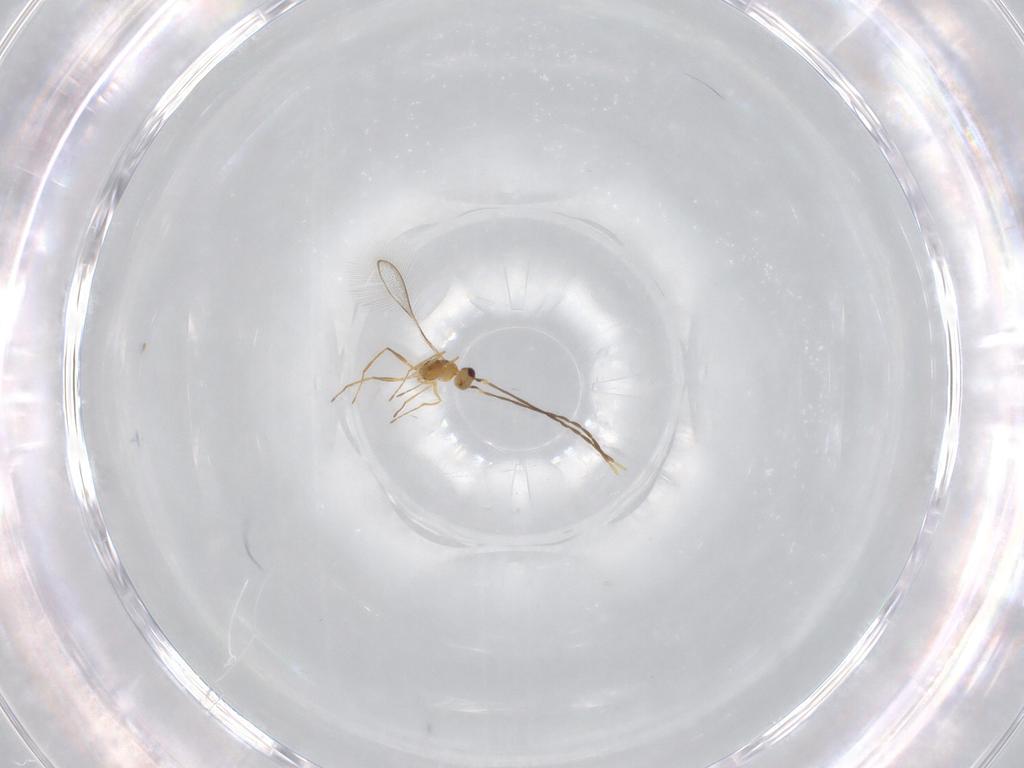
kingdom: Animalia
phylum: Arthropoda
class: Insecta
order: Hymenoptera
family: Mymaridae
